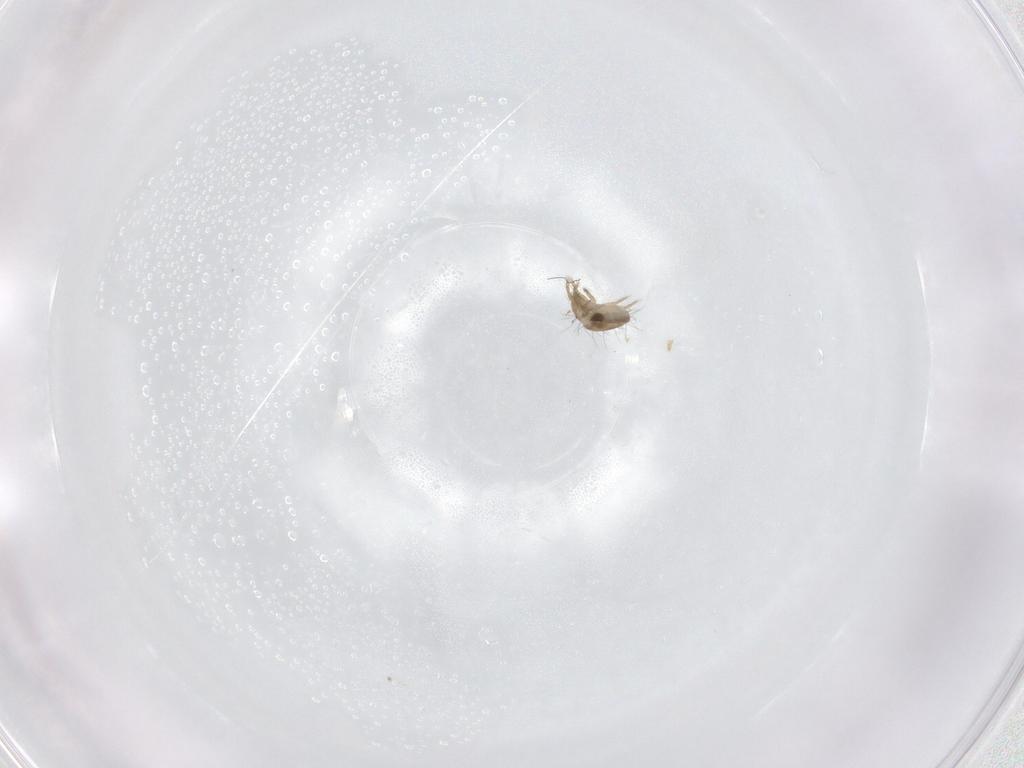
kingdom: Animalia
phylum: Arthropoda
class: Arachnida
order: Sarcoptiformes
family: Humerobatidae
